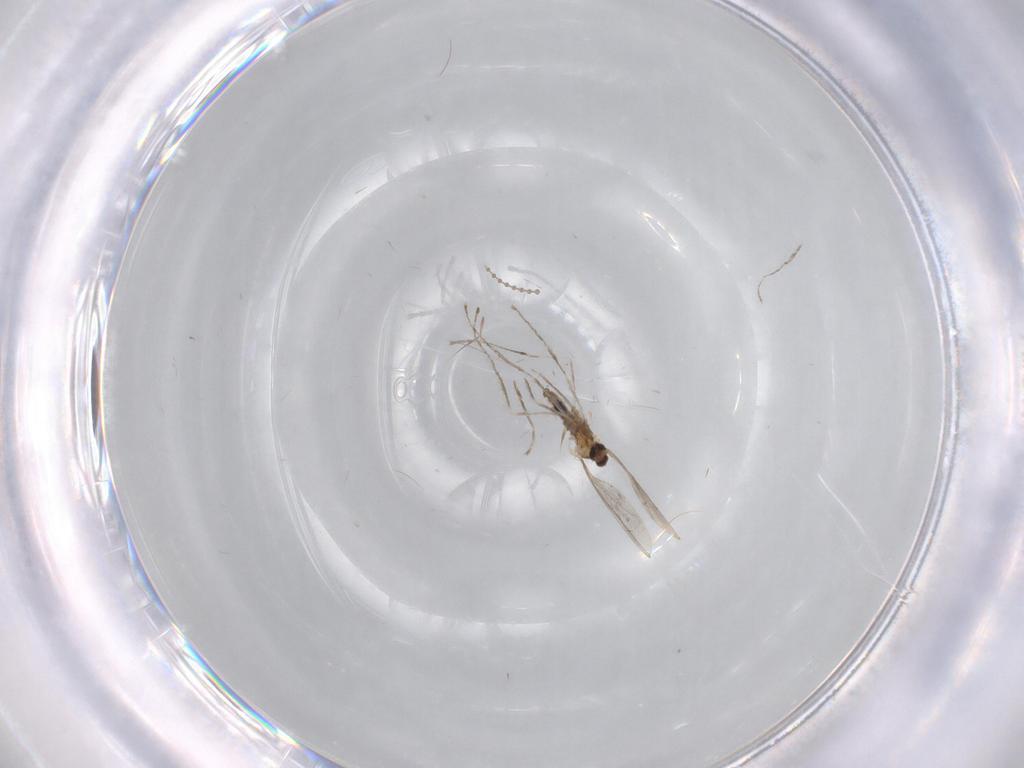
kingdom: Animalia
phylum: Arthropoda
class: Insecta
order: Diptera
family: Cecidomyiidae
